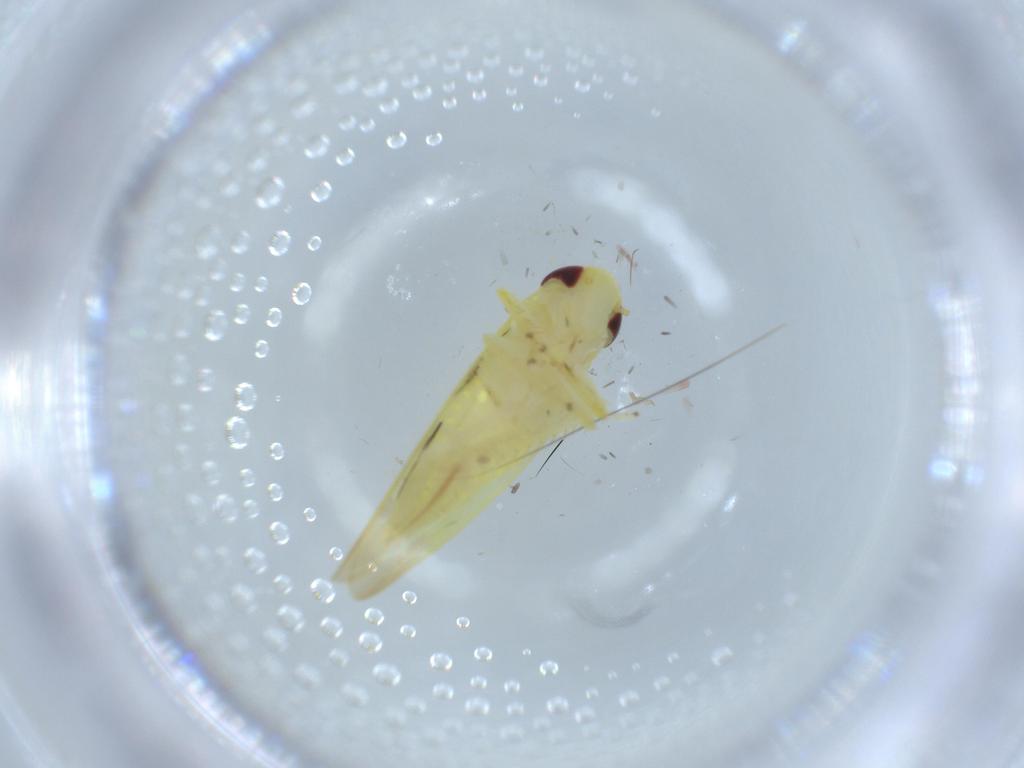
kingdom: Animalia
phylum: Arthropoda
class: Insecta
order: Hemiptera
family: Cicadellidae
